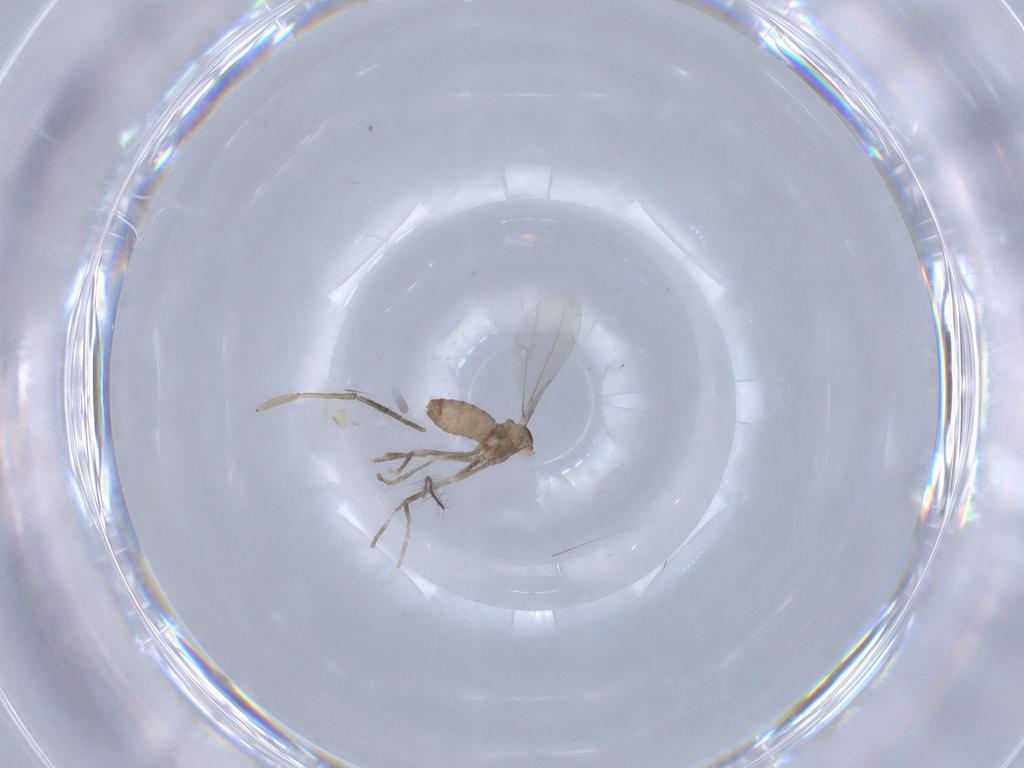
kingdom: Animalia
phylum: Arthropoda
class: Insecta
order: Diptera
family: Cecidomyiidae
